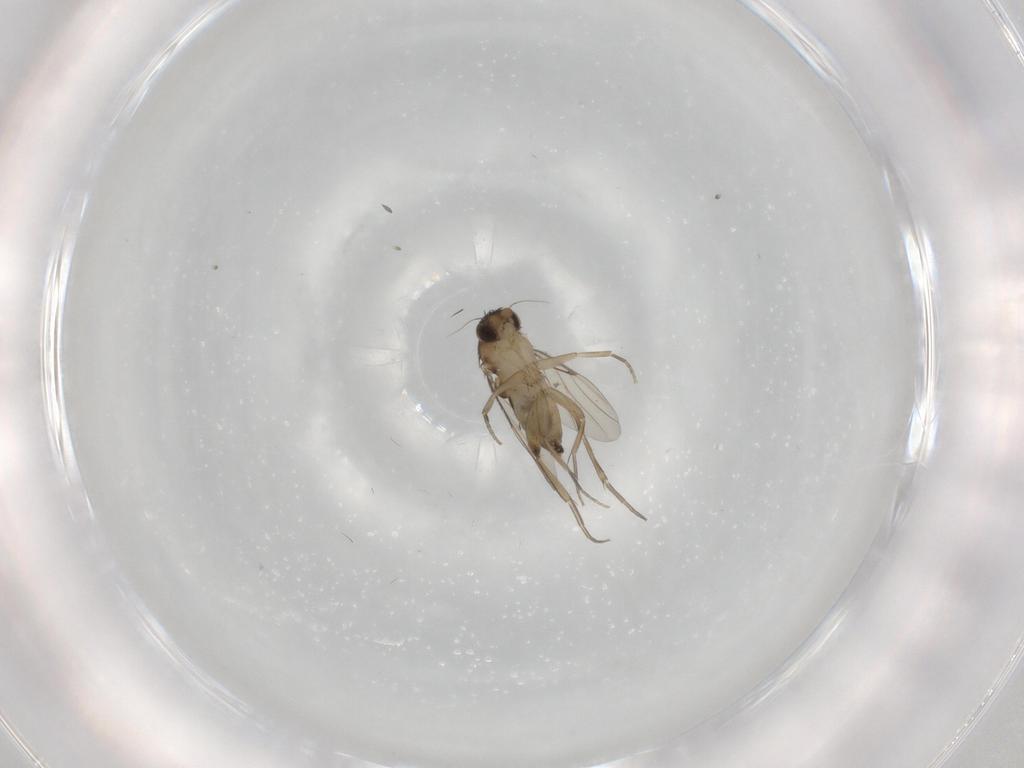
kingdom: Animalia
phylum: Arthropoda
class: Insecta
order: Diptera
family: Phoridae
